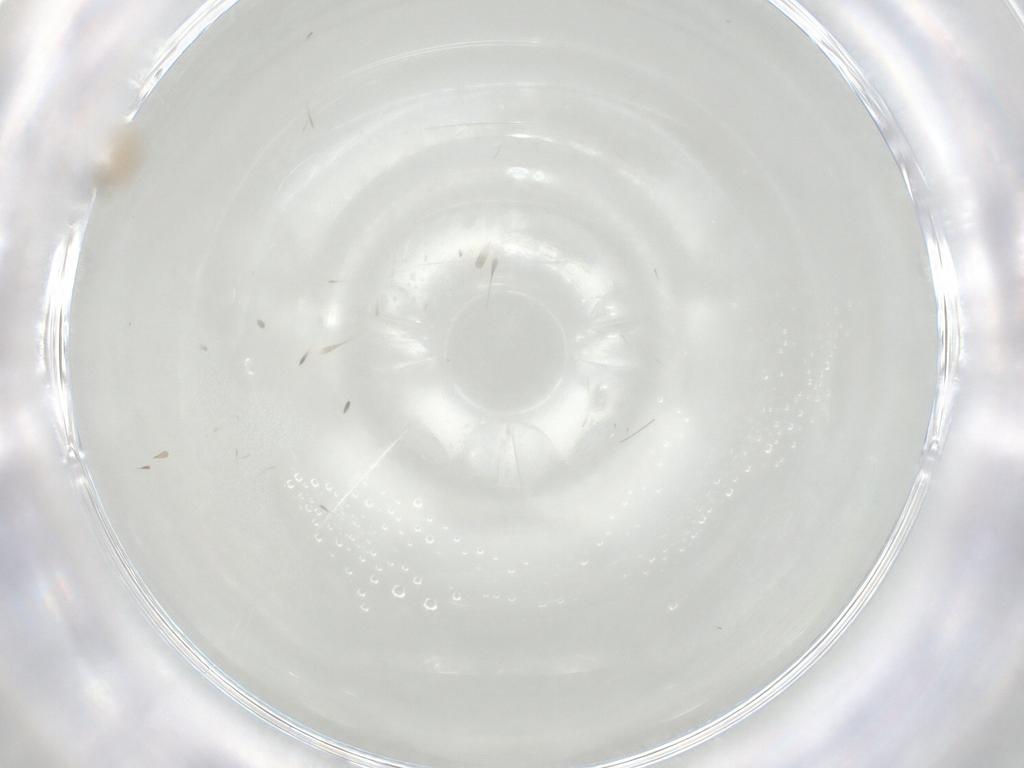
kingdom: Animalia
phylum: Arthropoda
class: Insecta
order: Diptera
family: Cecidomyiidae
